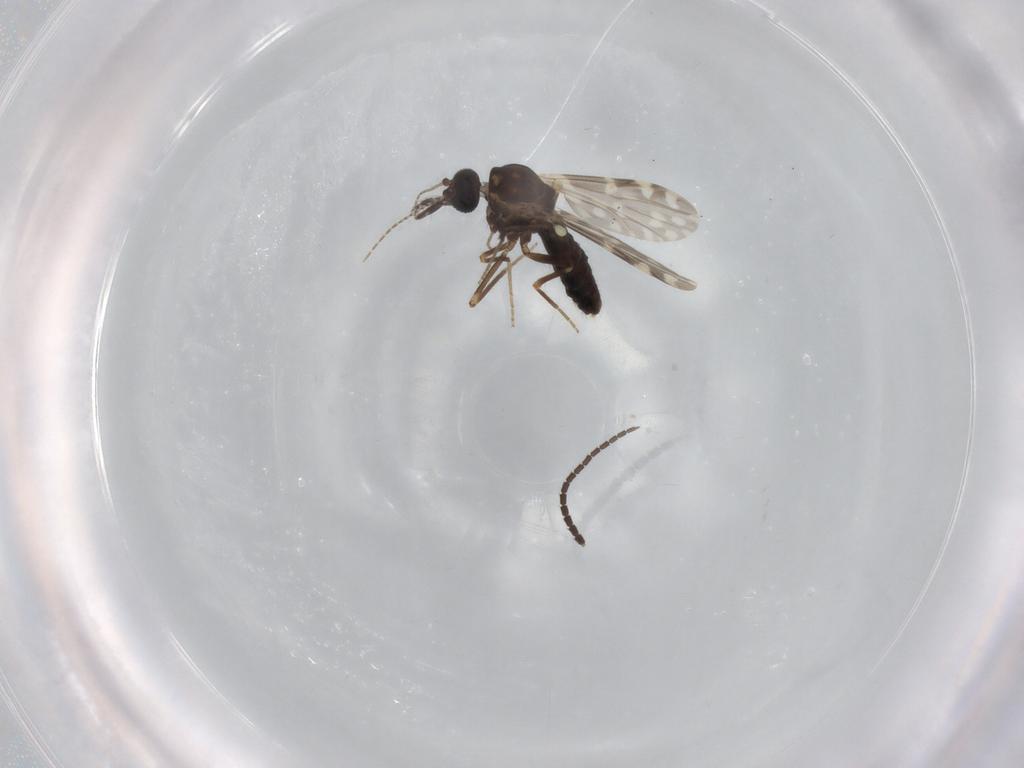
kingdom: Animalia
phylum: Arthropoda
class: Insecta
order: Diptera
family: Ceratopogonidae
